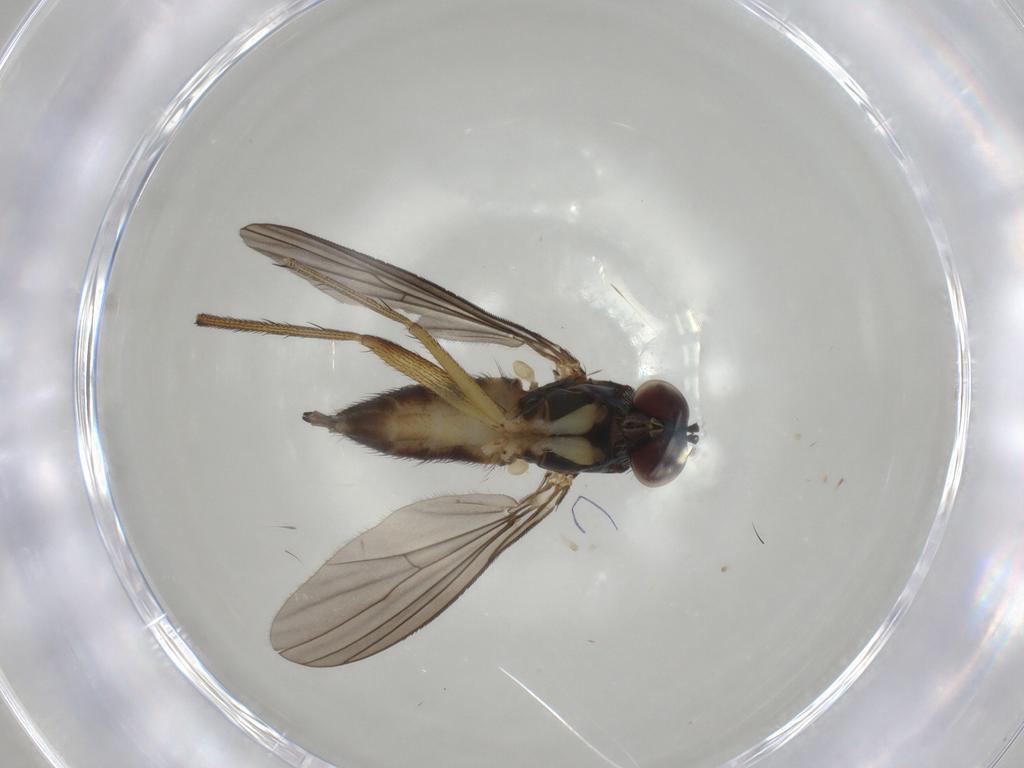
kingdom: Animalia
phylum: Arthropoda
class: Insecta
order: Diptera
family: Dolichopodidae
